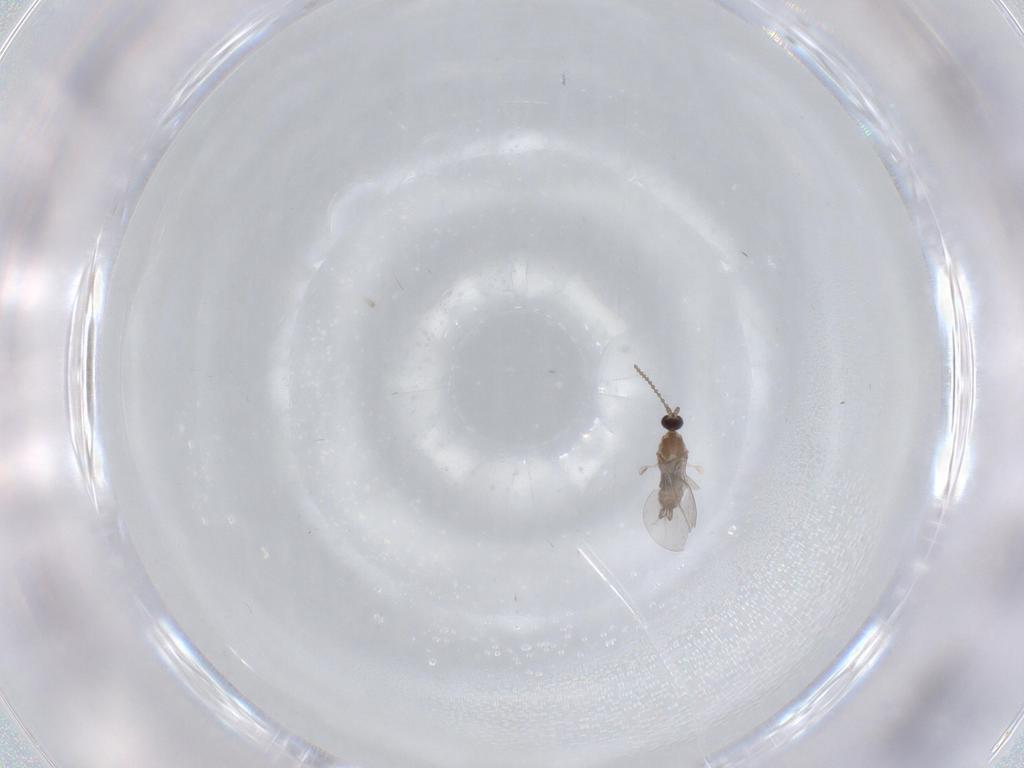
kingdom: Animalia
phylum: Arthropoda
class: Insecta
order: Diptera
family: Cecidomyiidae
